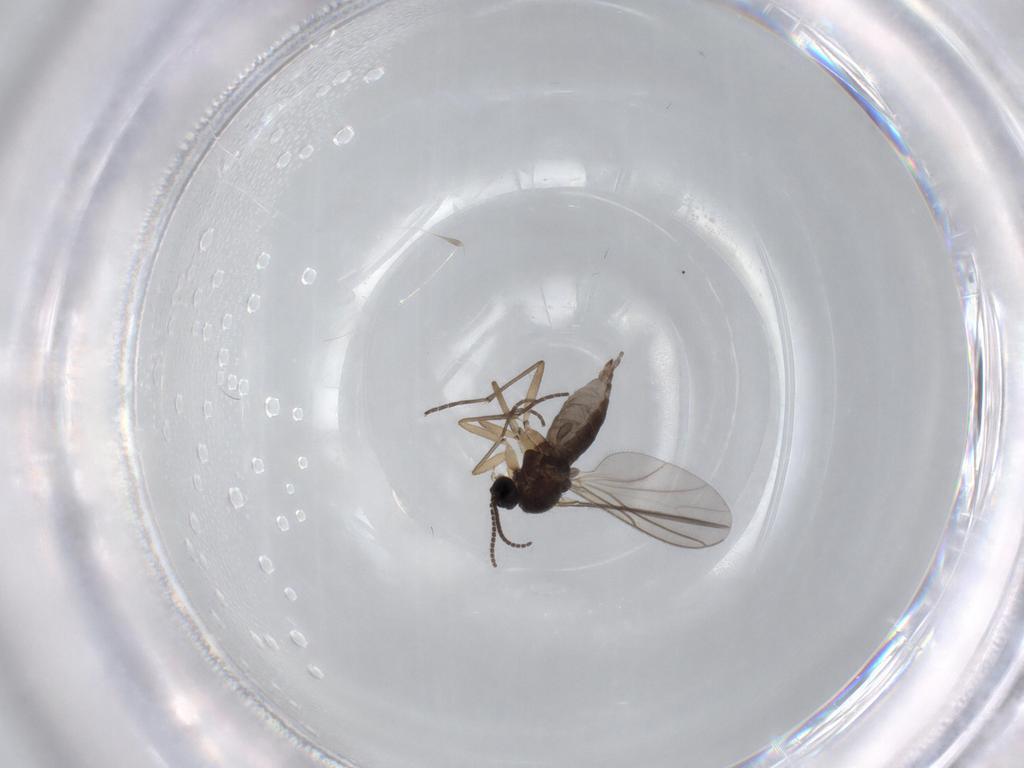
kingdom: Animalia
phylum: Arthropoda
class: Insecta
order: Diptera
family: Sciaridae
